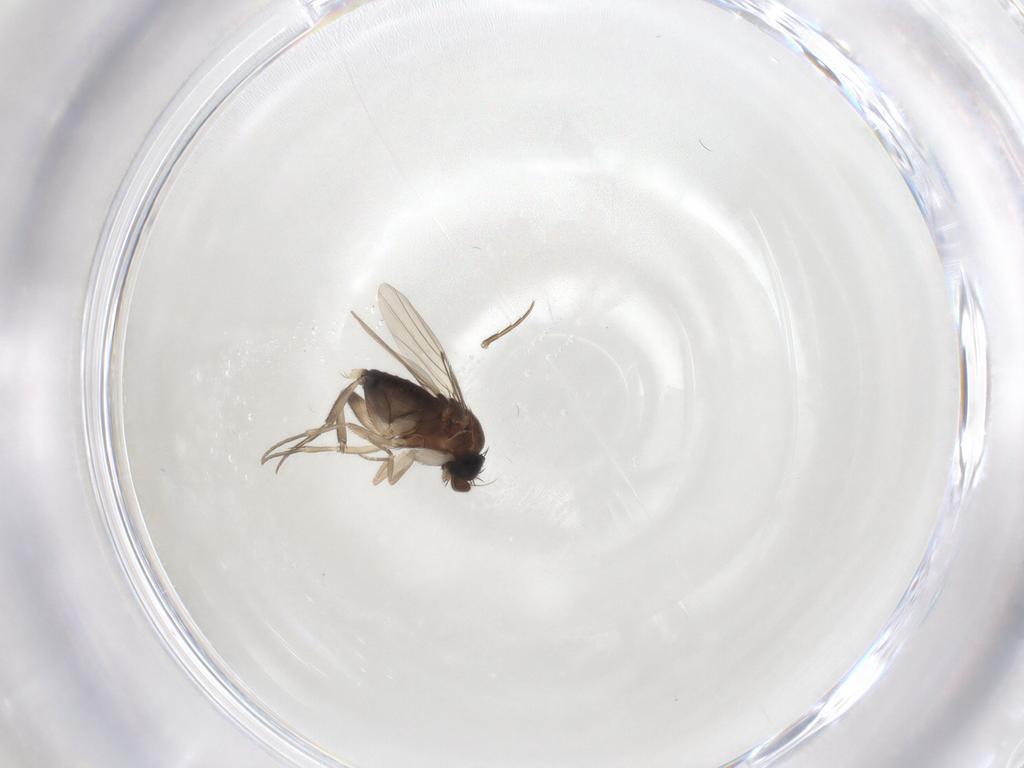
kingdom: Animalia
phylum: Arthropoda
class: Insecta
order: Diptera
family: Phoridae
